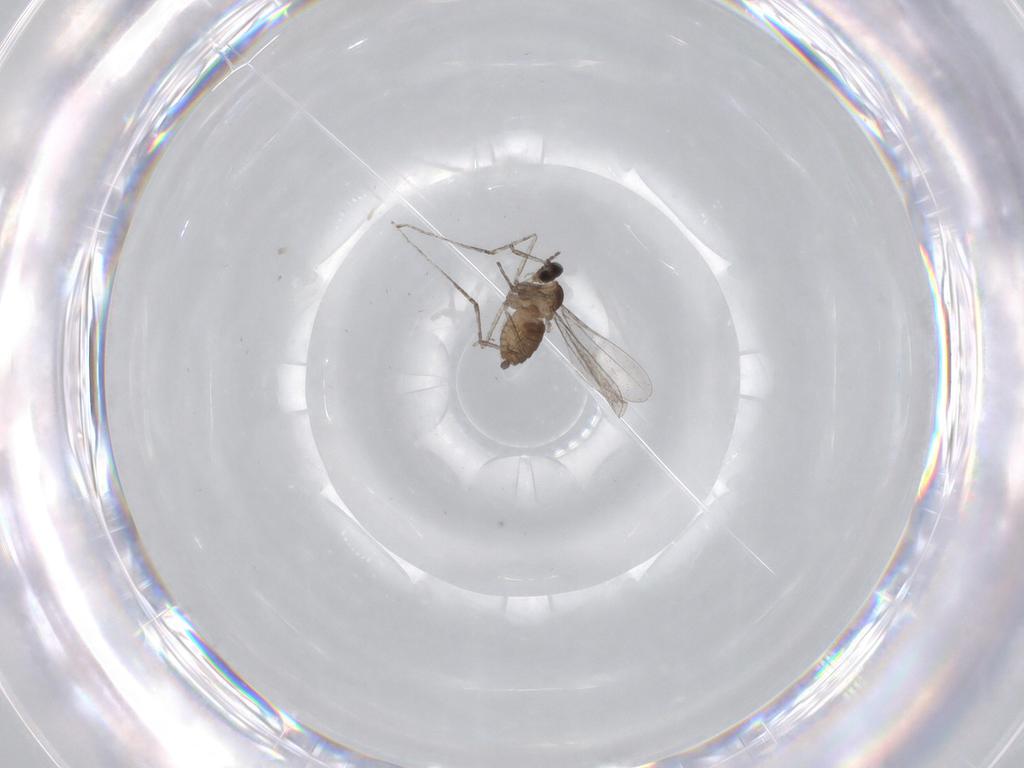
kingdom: Animalia
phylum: Arthropoda
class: Insecta
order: Diptera
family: Chironomidae
